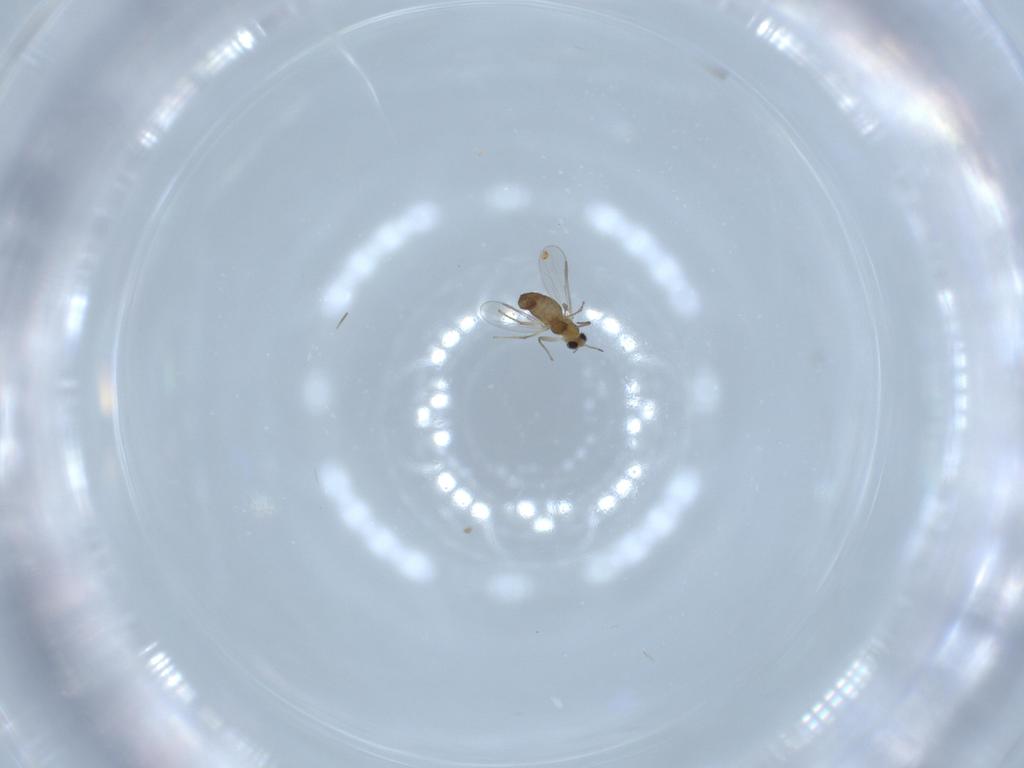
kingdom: Animalia
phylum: Arthropoda
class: Insecta
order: Diptera
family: Chironomidae
